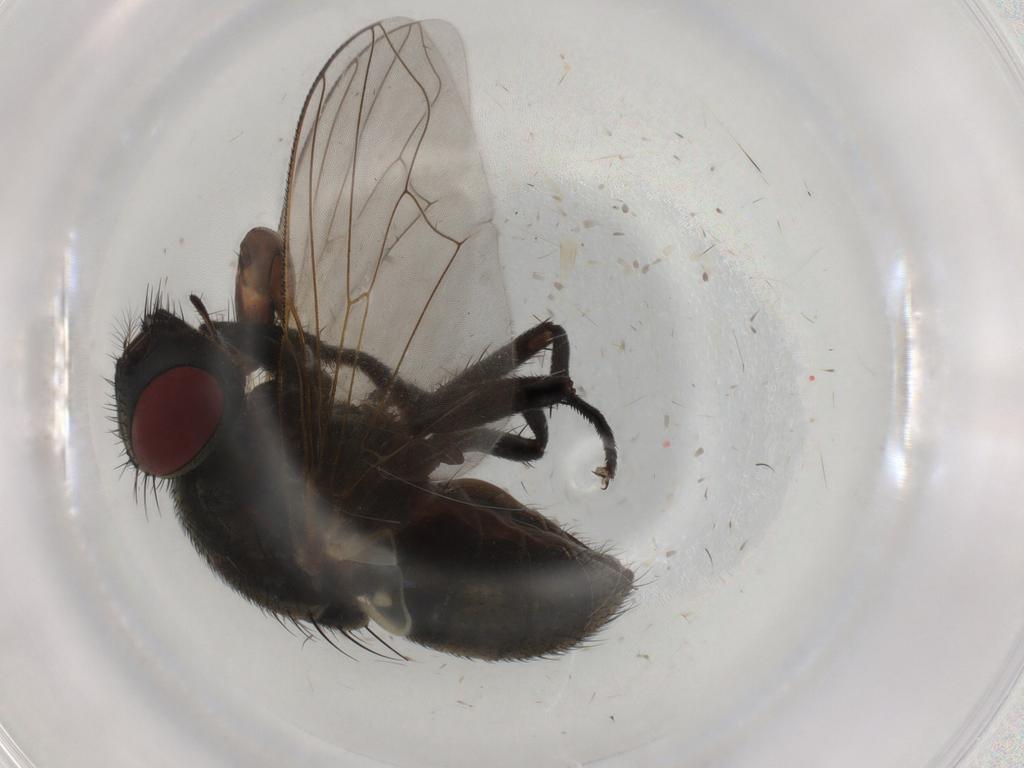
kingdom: Animalia
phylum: Arthropoda
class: Insecta
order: Diptera
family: Muscidae
